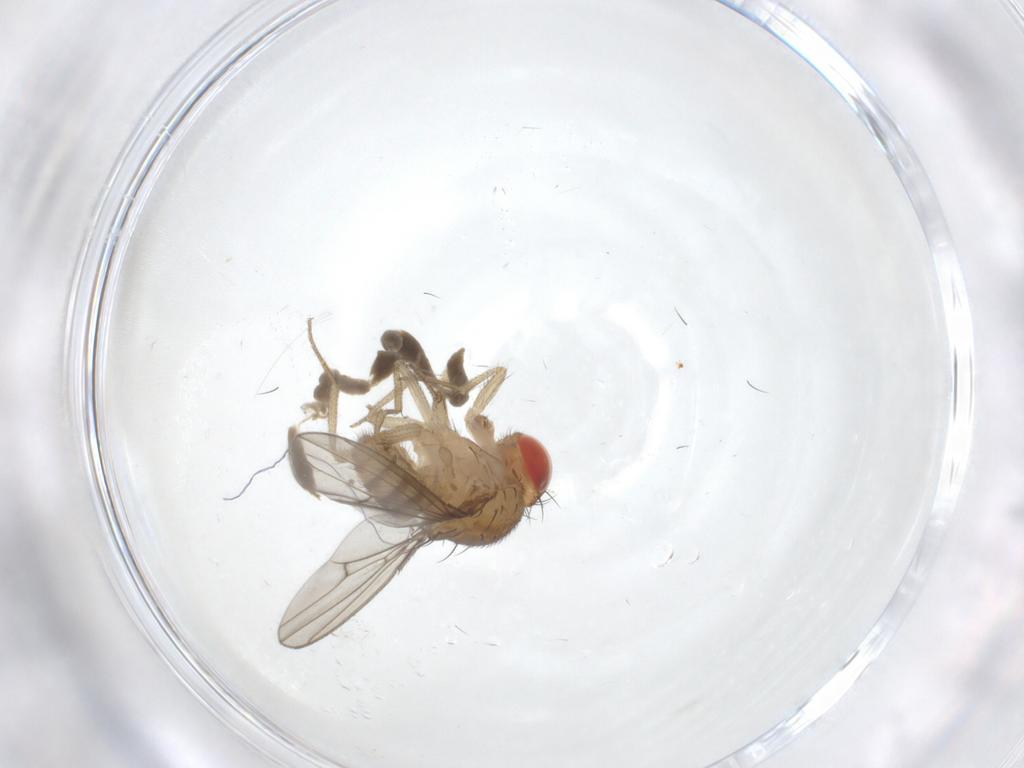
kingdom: Animalia
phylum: Arthropoda
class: Insecta
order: Diptera
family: Drosophilidae
